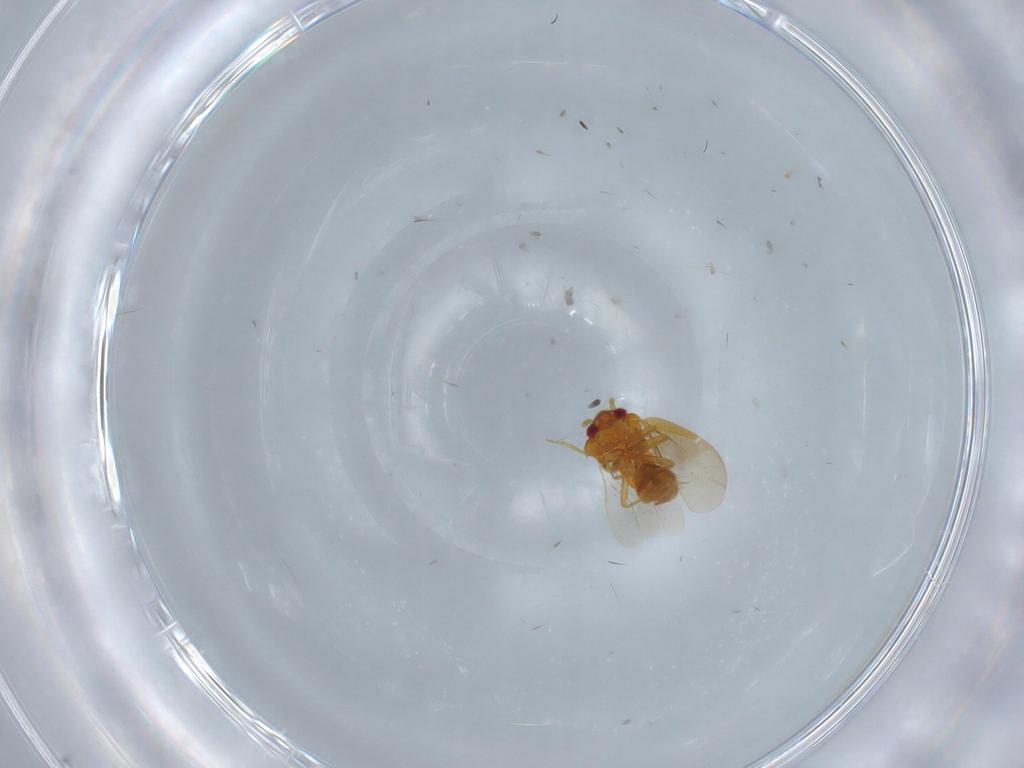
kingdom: Animalia
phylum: Arthropoda
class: Insecta
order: Hemiptera
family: Ceratocombidae
